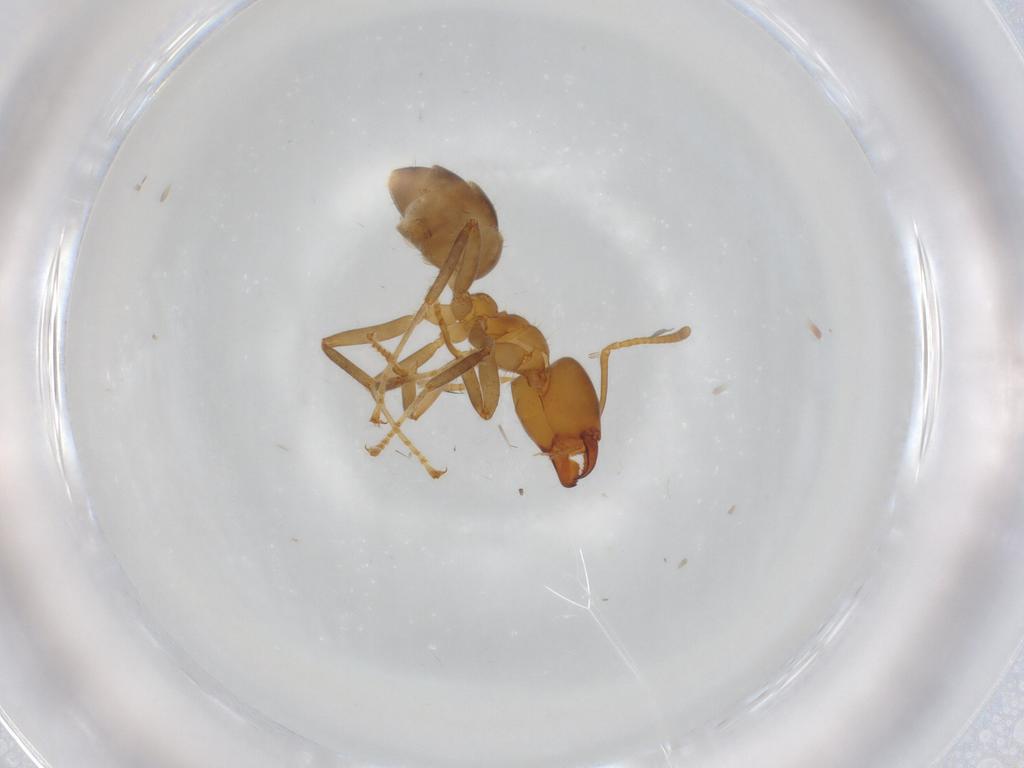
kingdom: Animalia
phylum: Arthropoda
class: Insecta
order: Hymenoptera
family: Formicidae
